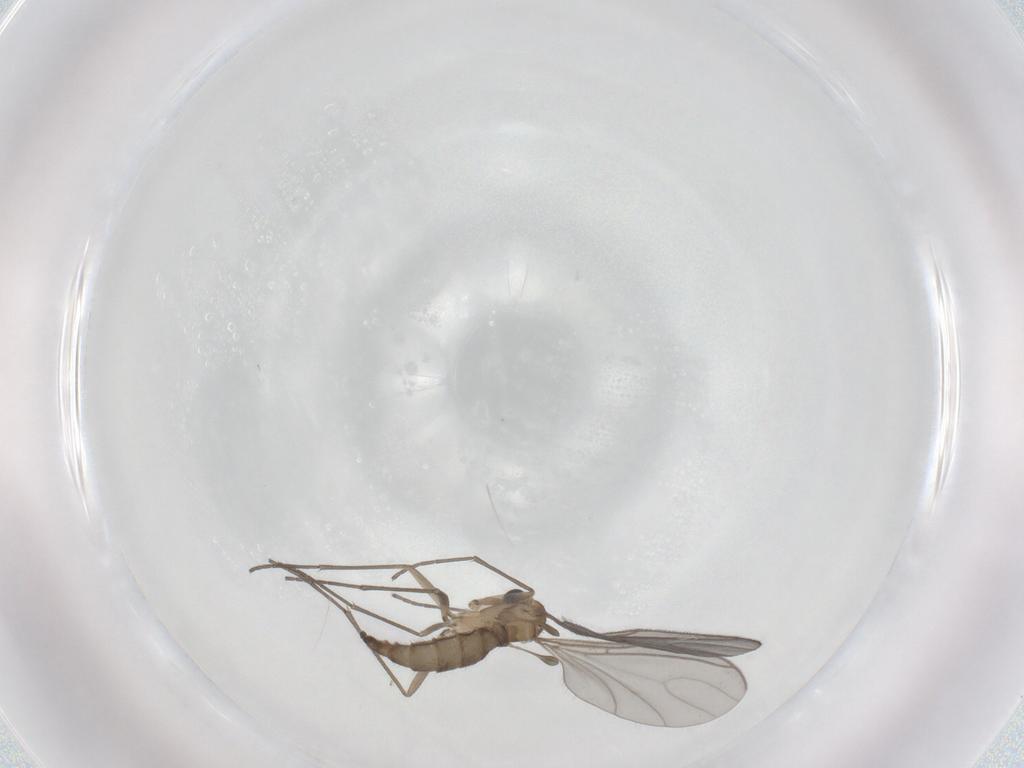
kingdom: Animalia
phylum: Arthropoda
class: Insecta
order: Diptera
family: Sciaridae
